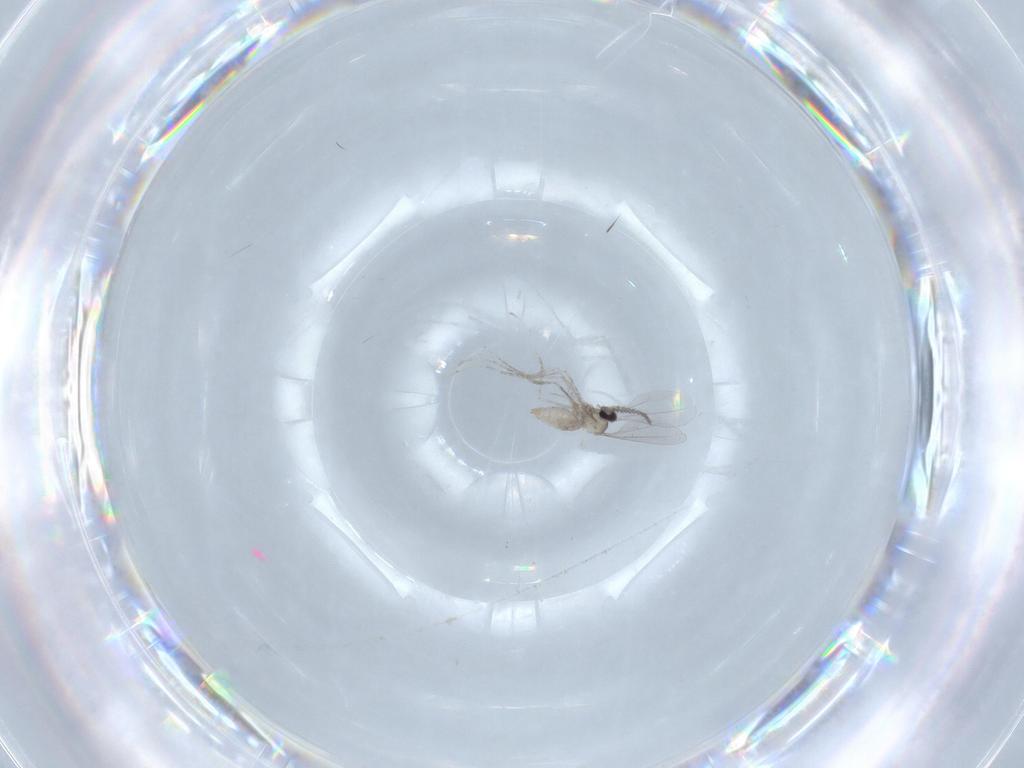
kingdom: Animalia
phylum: Arthropoda
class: Insecta
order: Diptera
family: Cecidomyiidae
